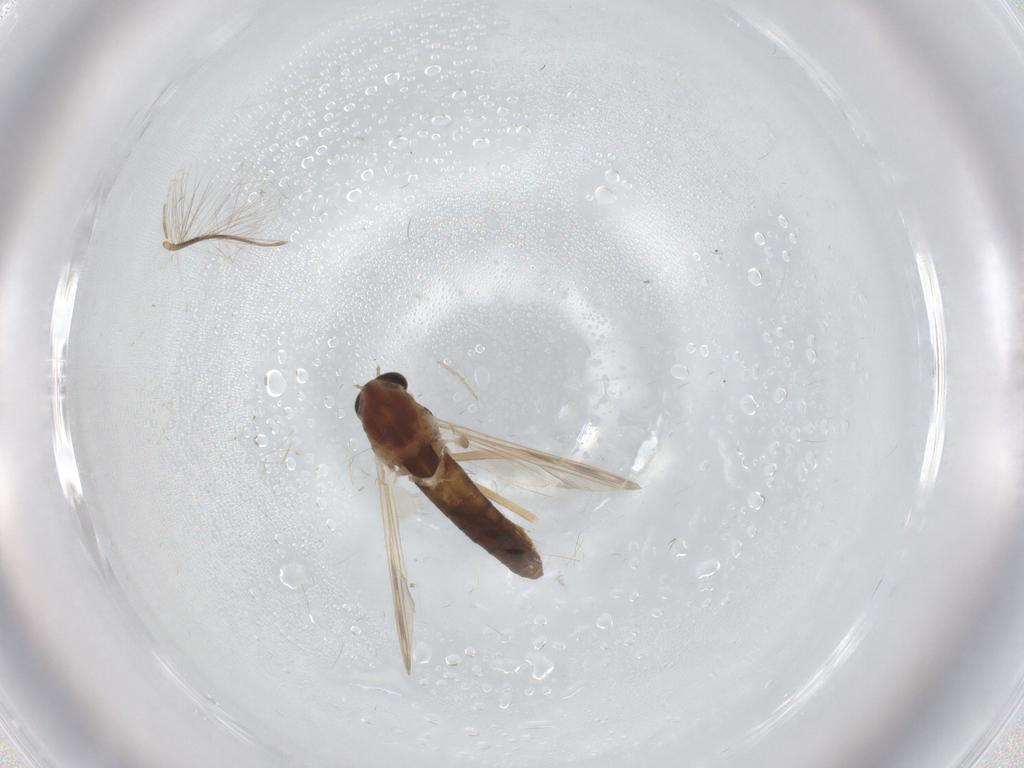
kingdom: Animalia
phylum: Arthropoda
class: Insecta
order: Diptera
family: Chironomidae
